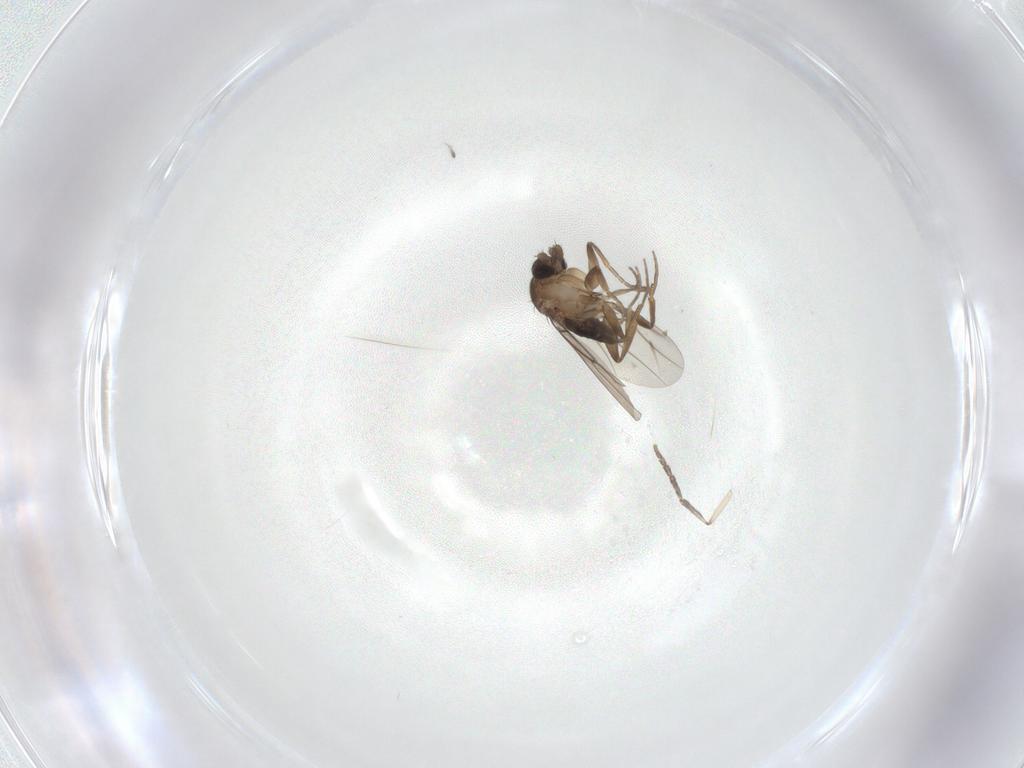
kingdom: Animalia
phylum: Arthropoda
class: Insecta
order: Diptera
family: Phoridae
